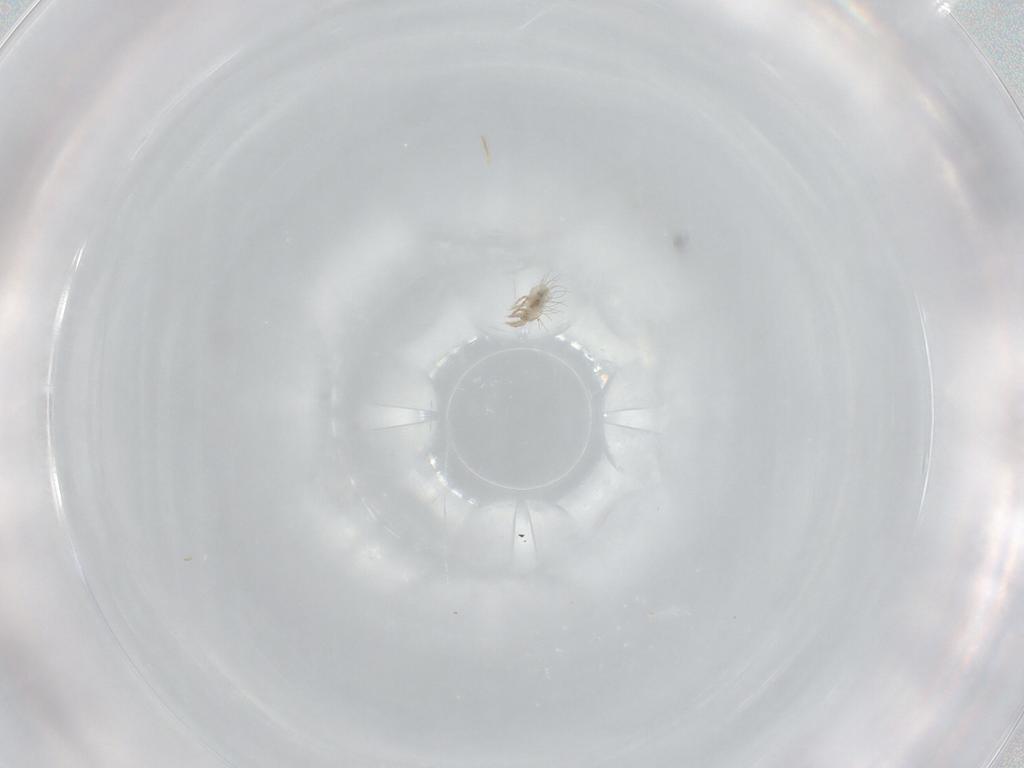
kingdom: Animalia
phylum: Arthropoda
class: Arachnida
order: Sarcoptiformes
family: Mochlozetidae
